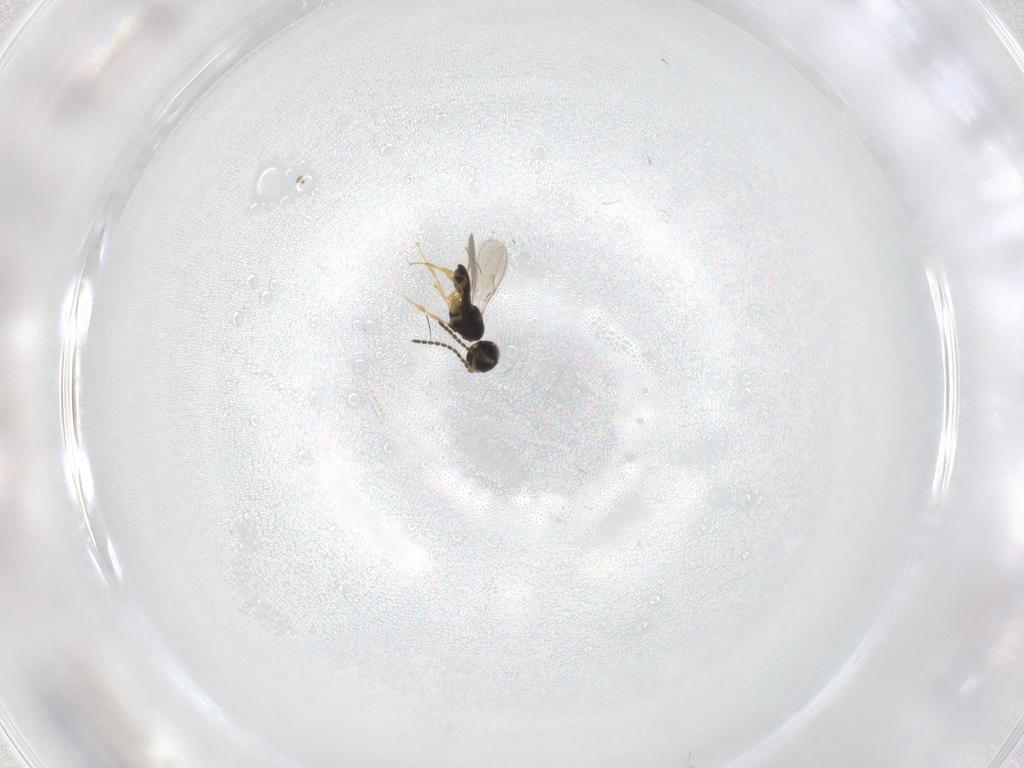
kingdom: Animalia
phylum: Arthropoda
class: Insecta
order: Hymenoptera
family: Scelionidae
